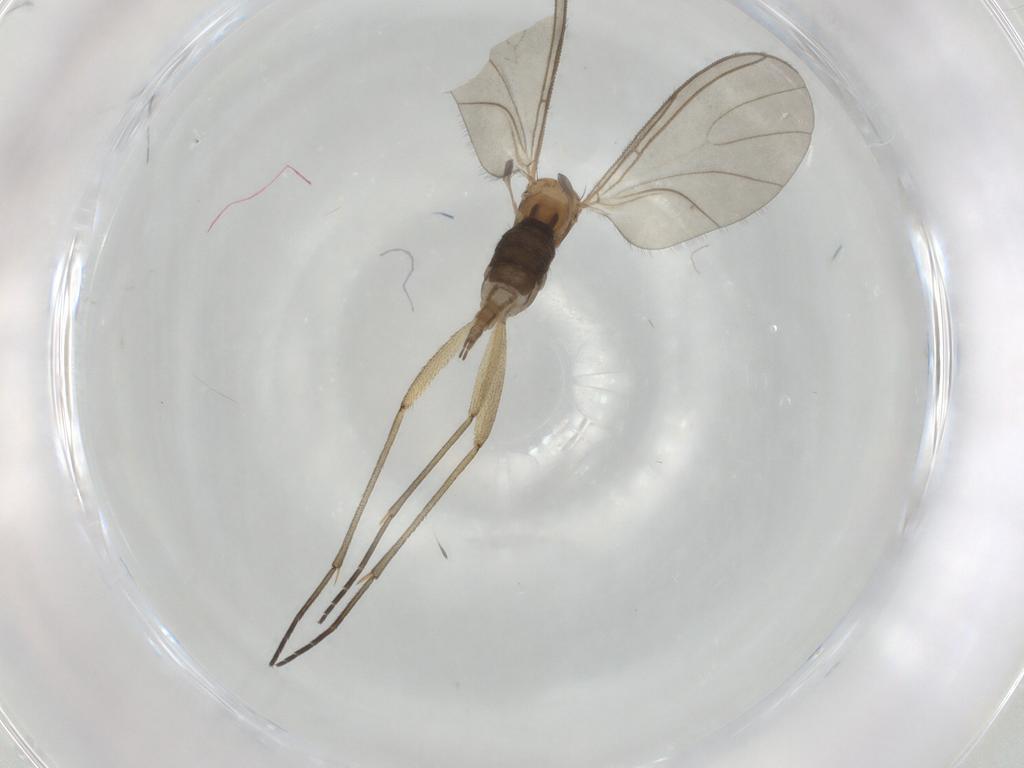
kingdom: Animalia
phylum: Arthropoda
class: Insecta
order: Diptera
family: Sciaridae
